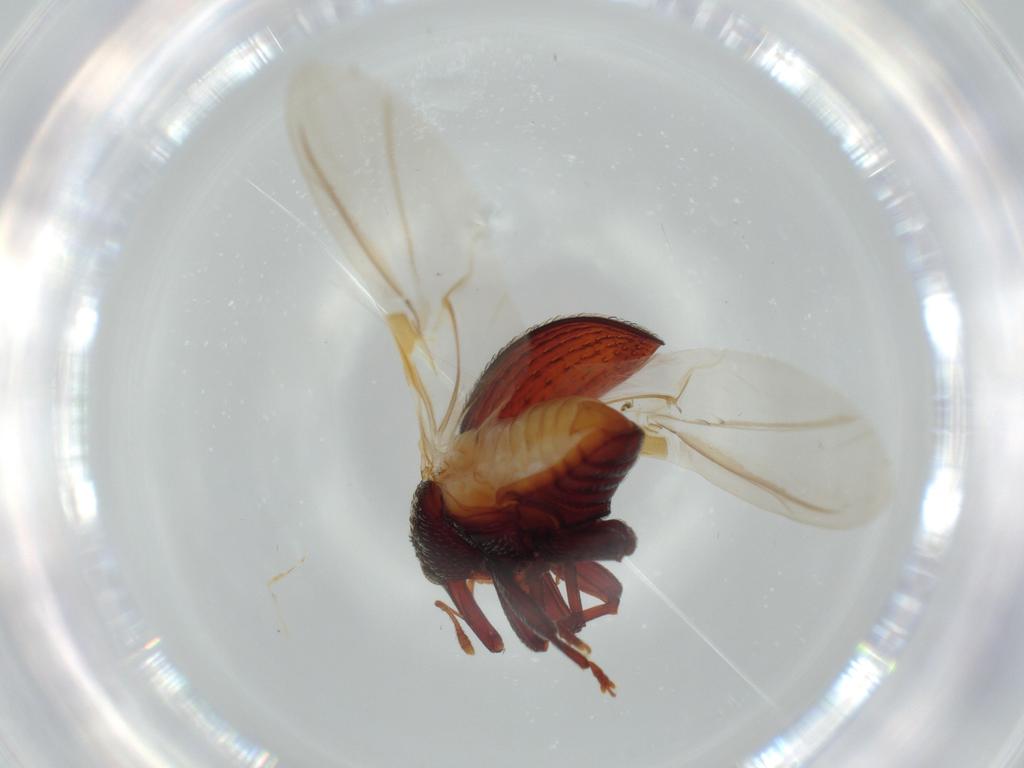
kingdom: Animalia
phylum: Arthropoda
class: Insecta
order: Coleoptera
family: Curculionidae
